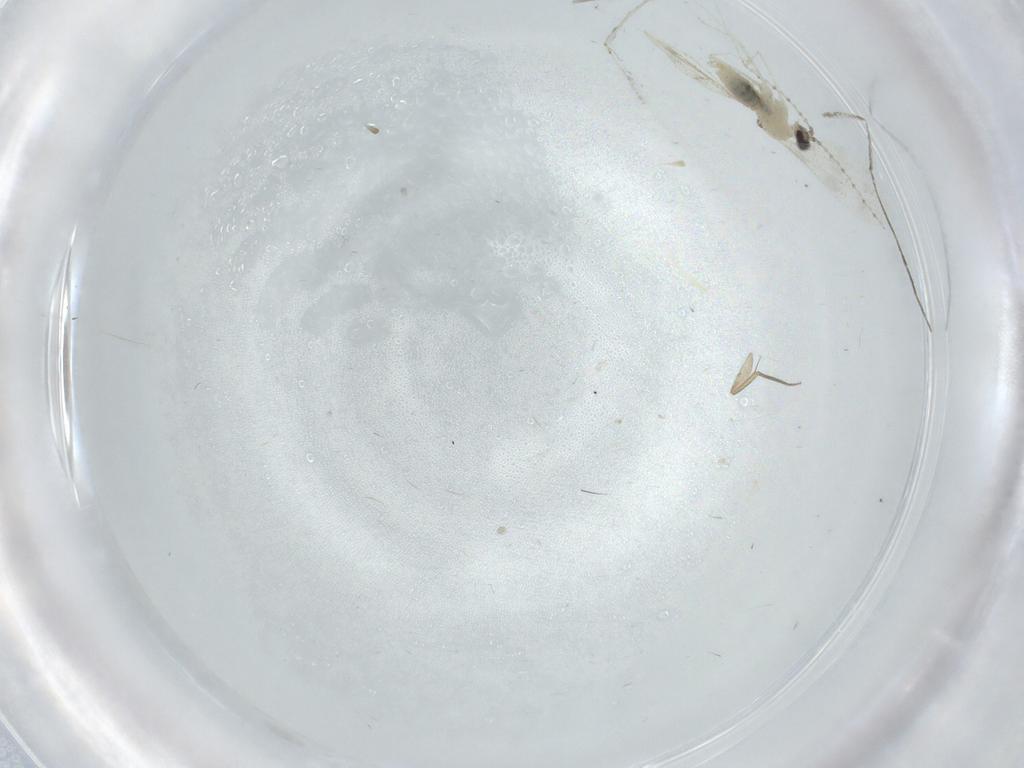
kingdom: Animalia
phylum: Arthropoda
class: Insecta
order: Diptera
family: Cecidomyiidae
